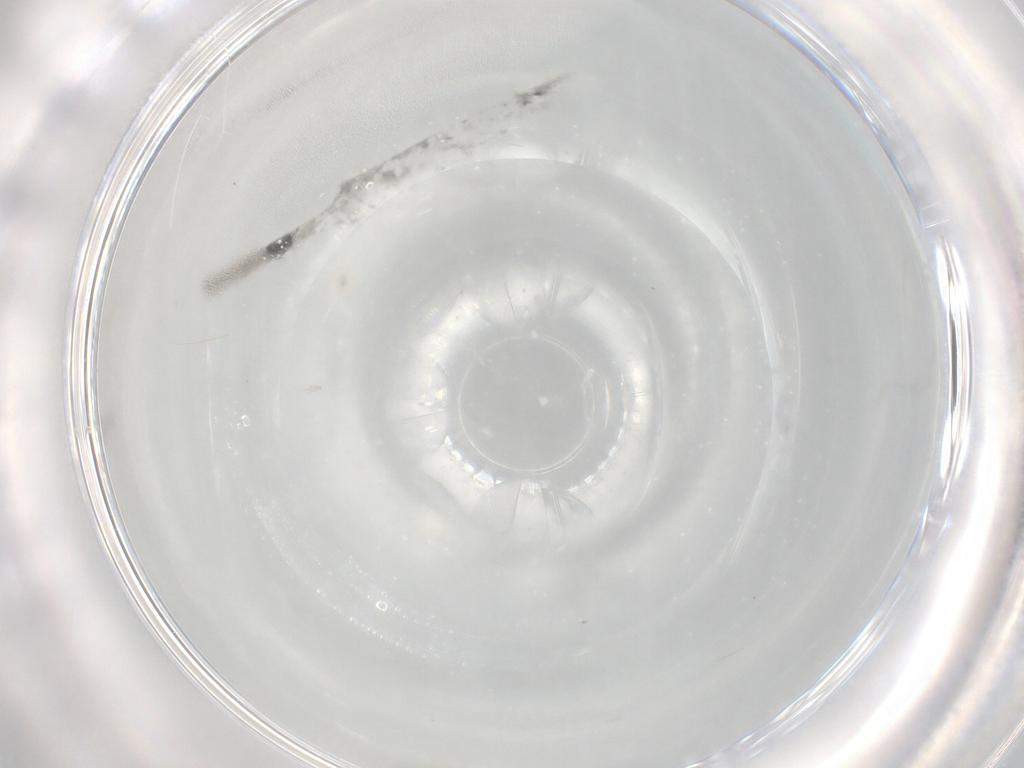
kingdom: Animalia
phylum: Arthropoda
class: Insecta
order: Hymenoptera
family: Aphelinidae
